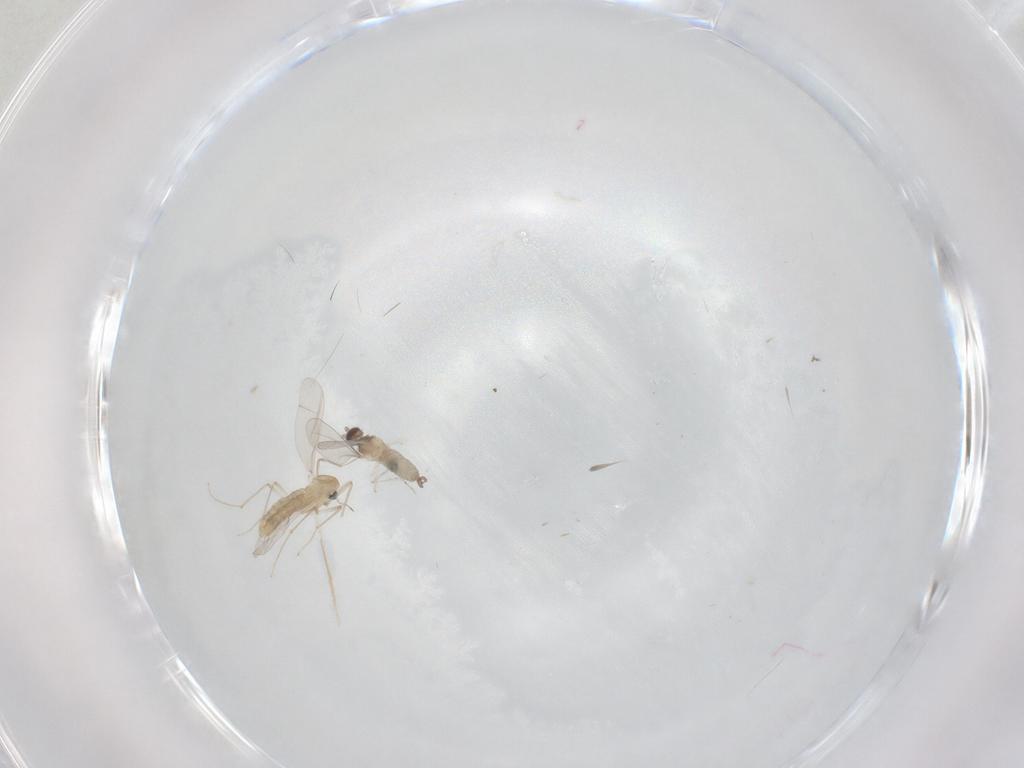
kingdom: Animalia
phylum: Arthropoda
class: Insecta
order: Diptera
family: Chironomidae
